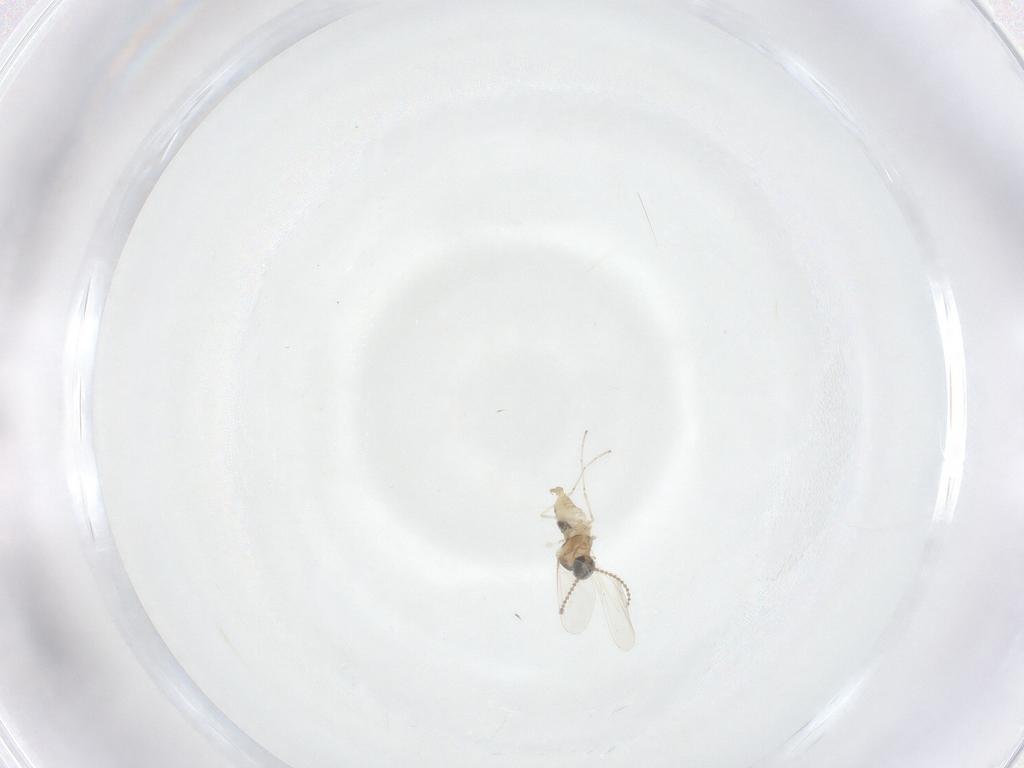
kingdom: Animalia
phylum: Arthropoda
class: Insecta
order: Diptera
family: Cecidomyiidae
